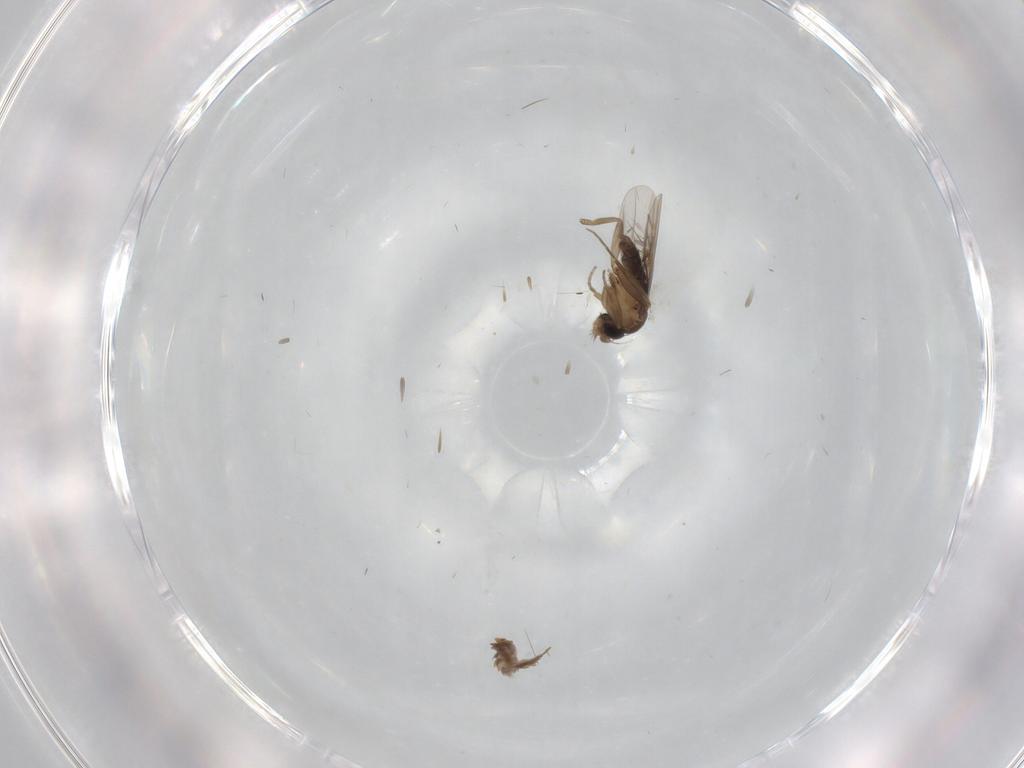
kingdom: Animalia
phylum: Arthropoda
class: Insecta
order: Diptera
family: Psychodidae
